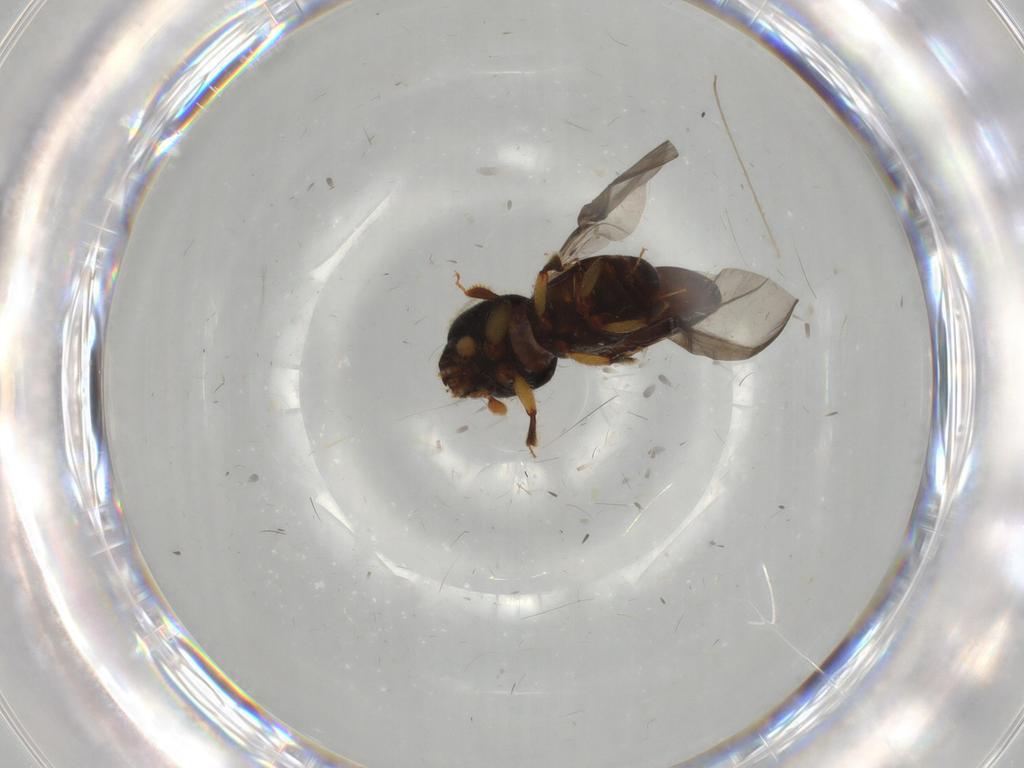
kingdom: Animalia
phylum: Arthropoda
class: Insecta
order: Coleoptera
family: Curculionidae
